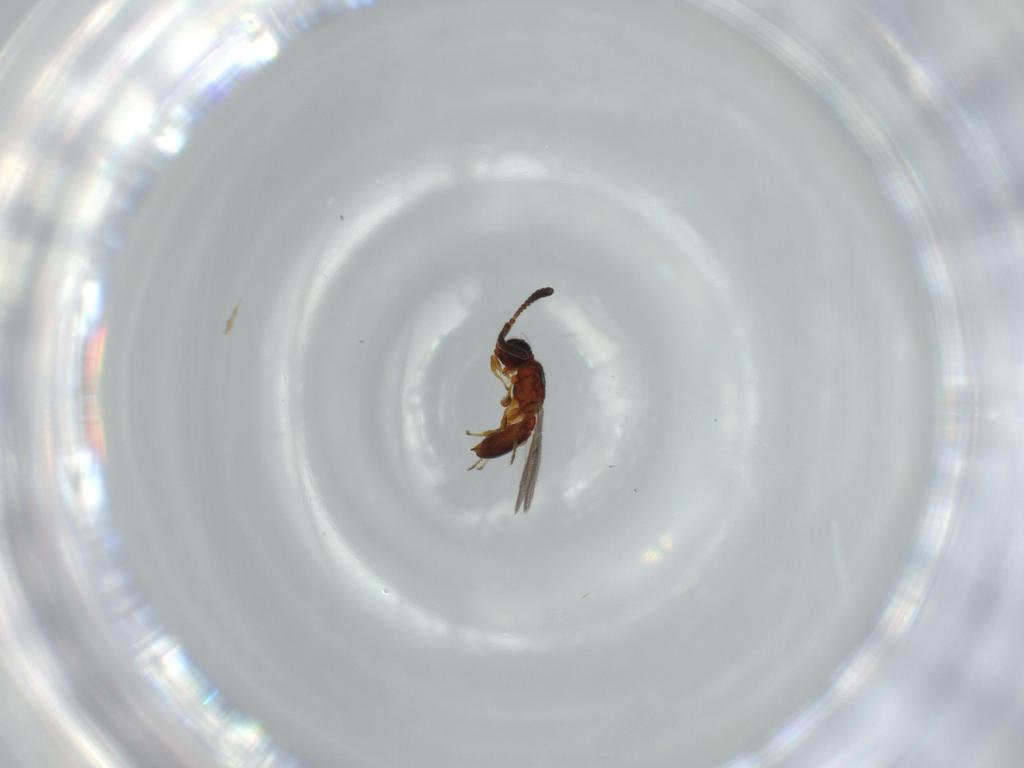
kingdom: Animalia
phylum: Arthropoda
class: Insecta
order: Hymenoptera
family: Diapriidae
